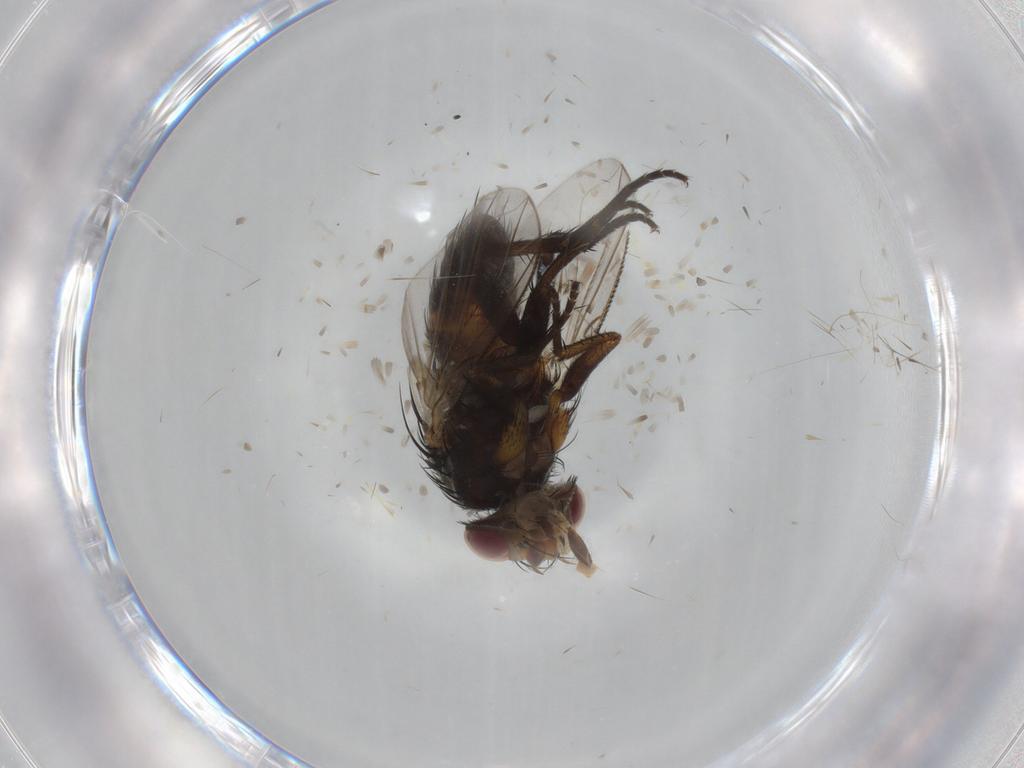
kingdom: Animalia
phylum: Arthropoda
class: Insecta
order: Diptera
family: Tachinidae
